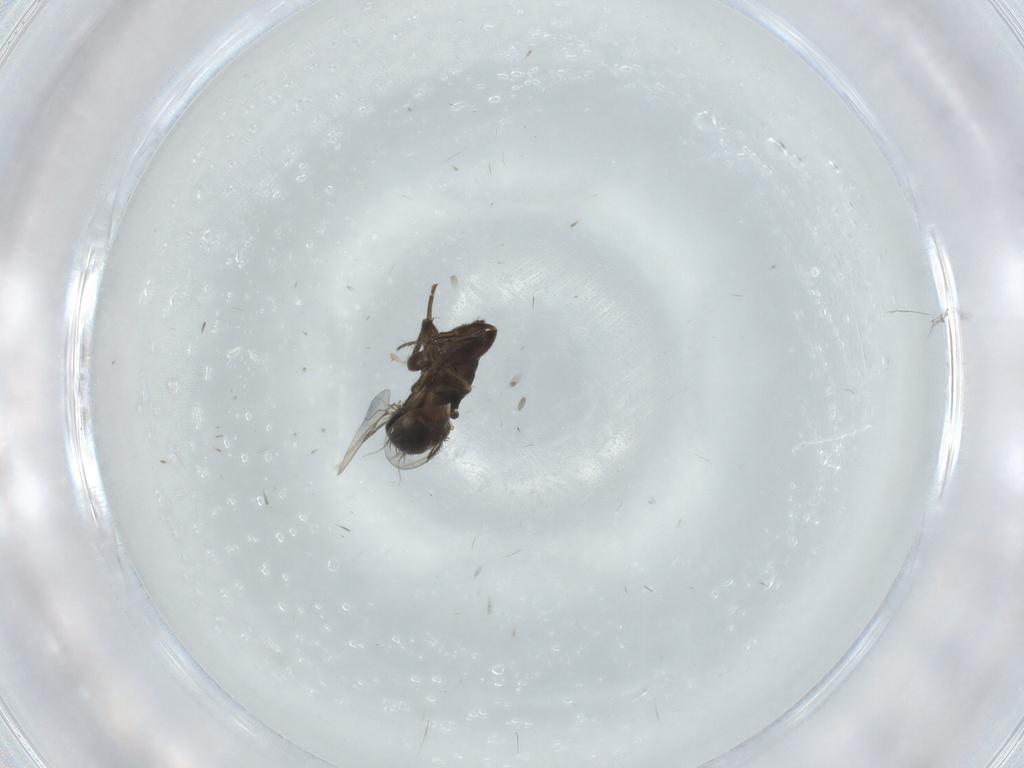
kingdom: Animalia
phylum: Arthropoda
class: Insecta
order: Diptera
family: Phoridae
